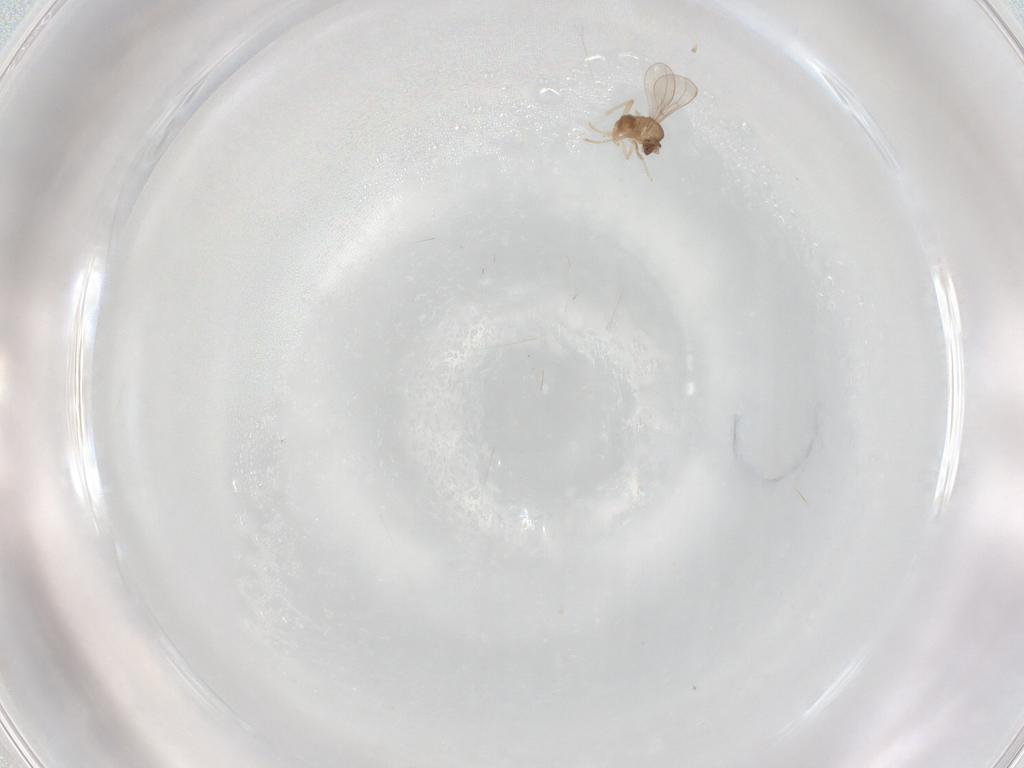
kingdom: Animalia
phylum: Arthropoda
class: Insecta
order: Diptera
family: Cecidomyiidae
